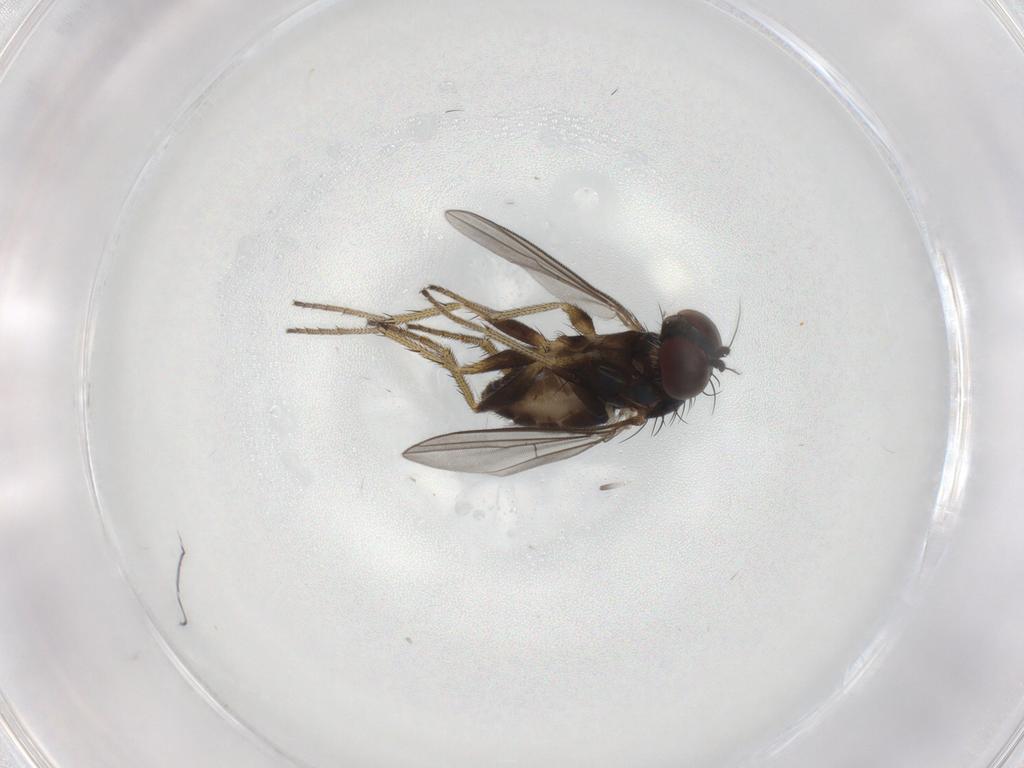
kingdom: Animalia
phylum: Arthropoda
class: Insecta
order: Diptera
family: Dolichopodidae
